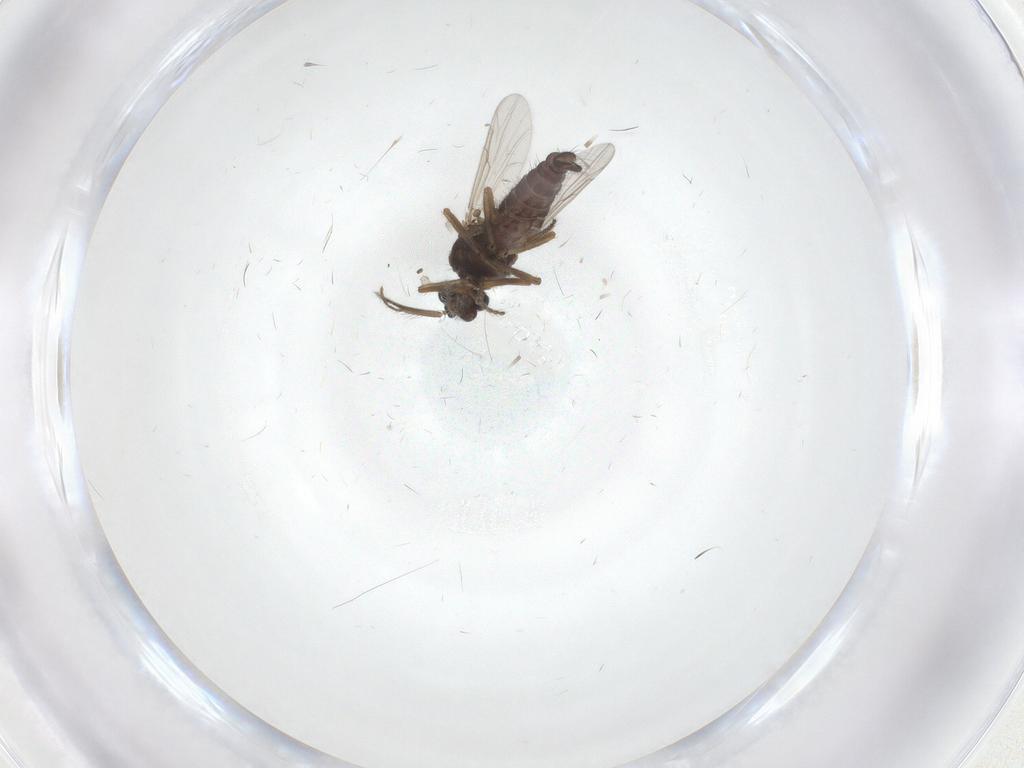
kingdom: Animalia
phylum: Arthropoda
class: Insecta
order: Diptera
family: Ceratopogonidae
